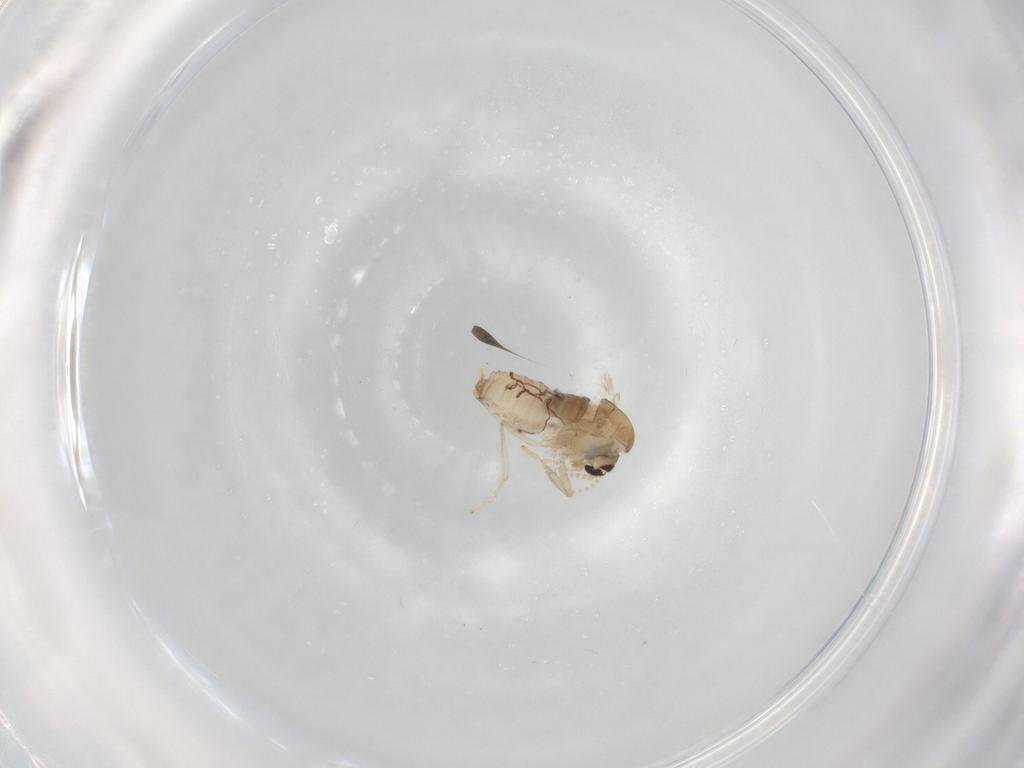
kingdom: Animalia
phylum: Arthropoda
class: Insecta
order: Diptera
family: Psychodidae
